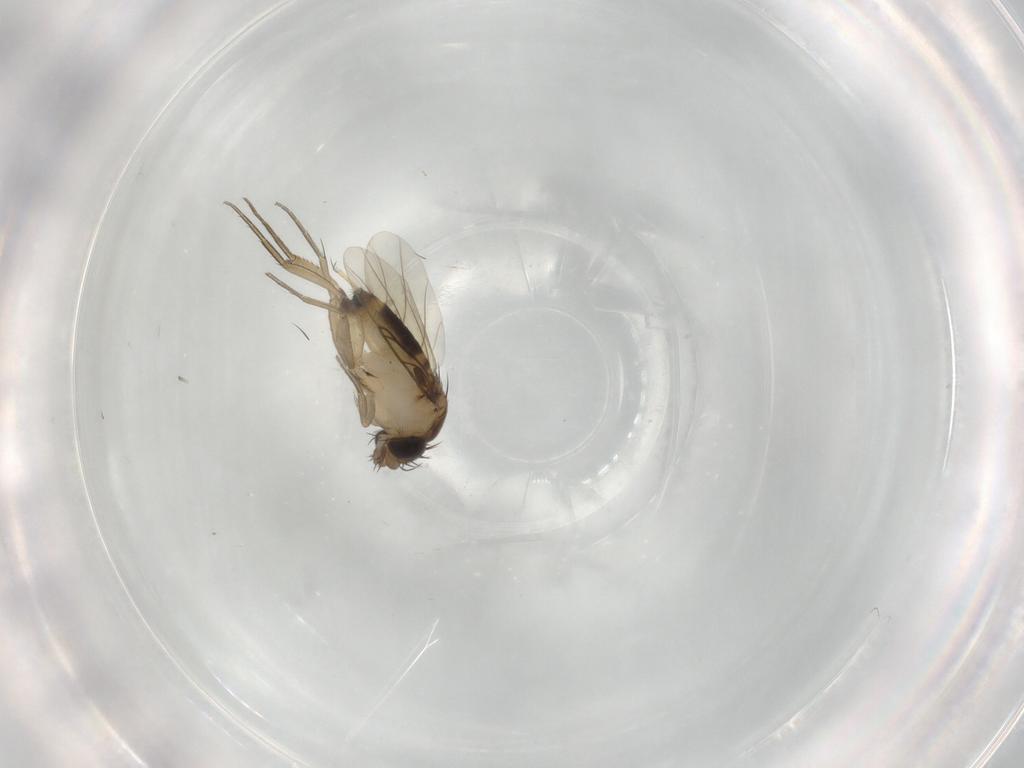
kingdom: Animalia
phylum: Arthropoda
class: Insecta
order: Diptera
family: Phoridae
